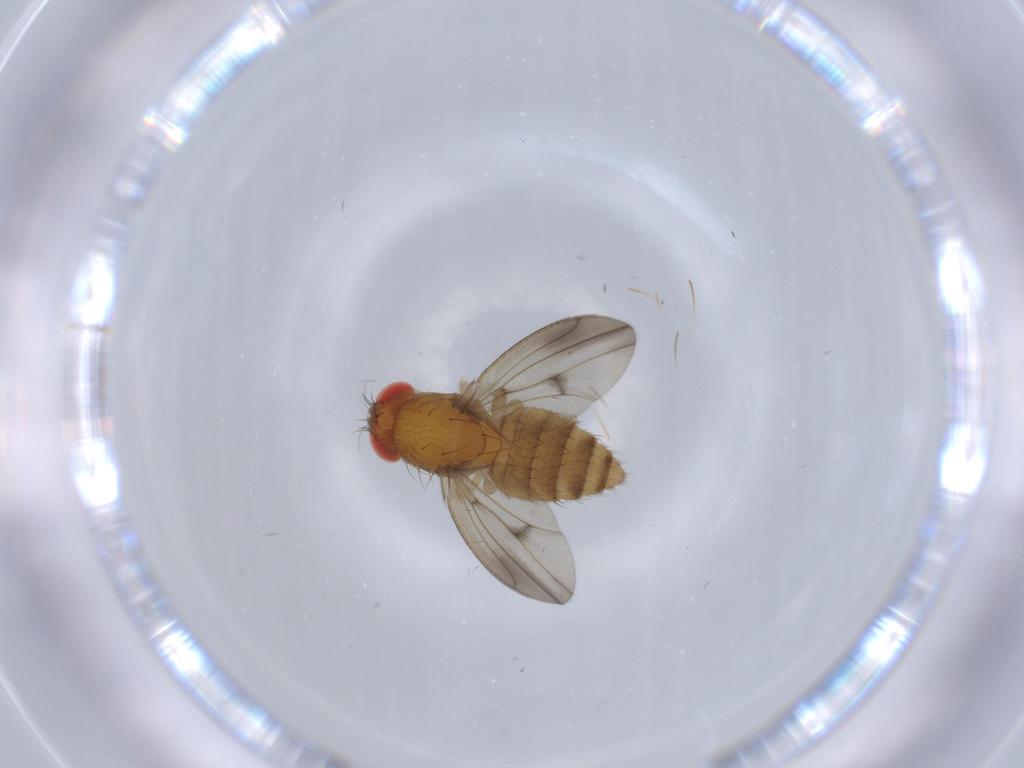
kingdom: Animalia
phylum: Arthropoda
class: Insecta
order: Diptera
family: Drosophilidae
